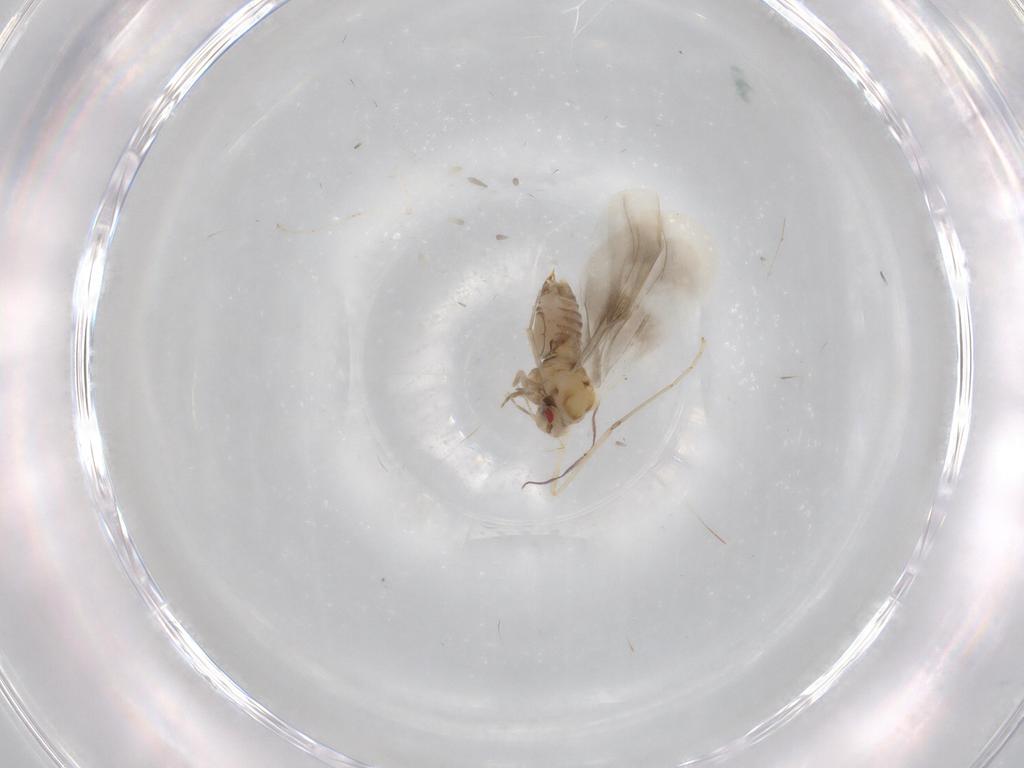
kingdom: Animalia
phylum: Arthropoda
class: Insecta
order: Hemiptera
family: Aleyrodidae
